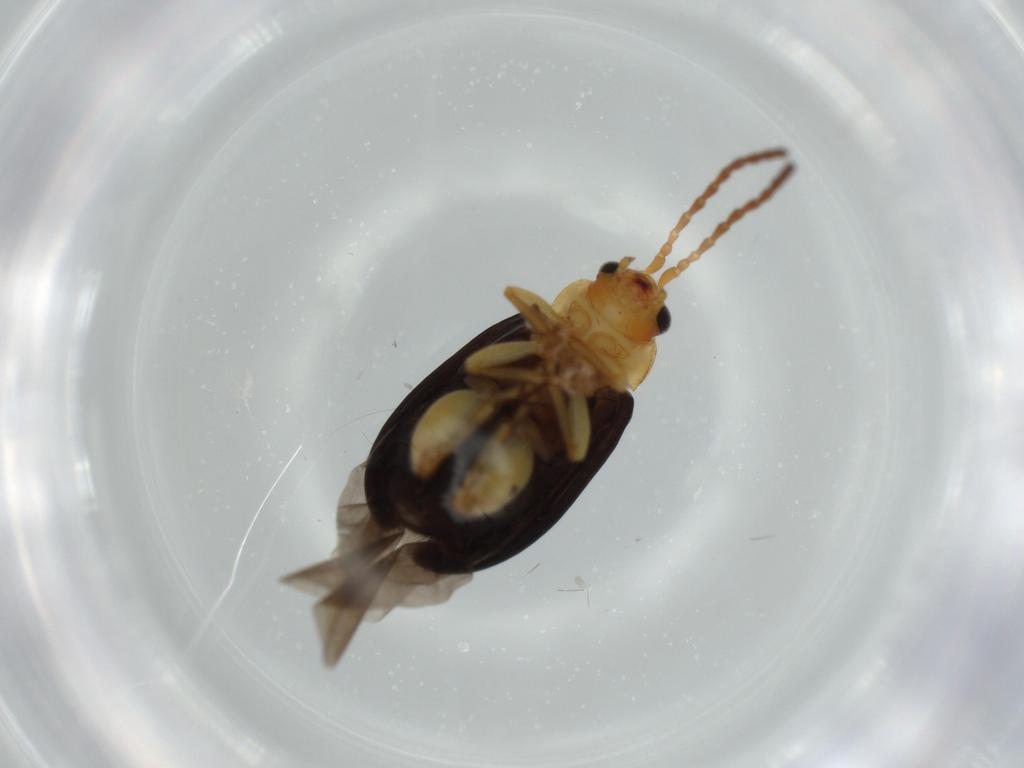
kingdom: Animalia
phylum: Arthropoda
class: Insecta
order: Coleoptera
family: Chrysomelidae
